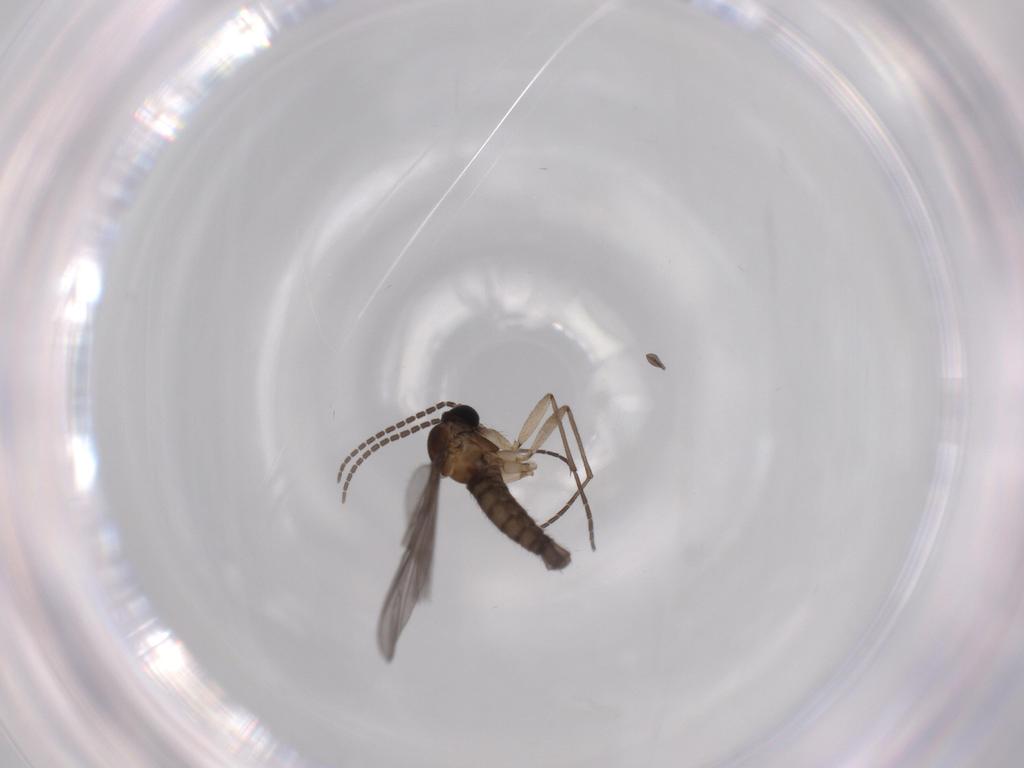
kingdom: Animalia
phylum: Arthropoda
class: Insecta
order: Diptera
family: Sciaridae
